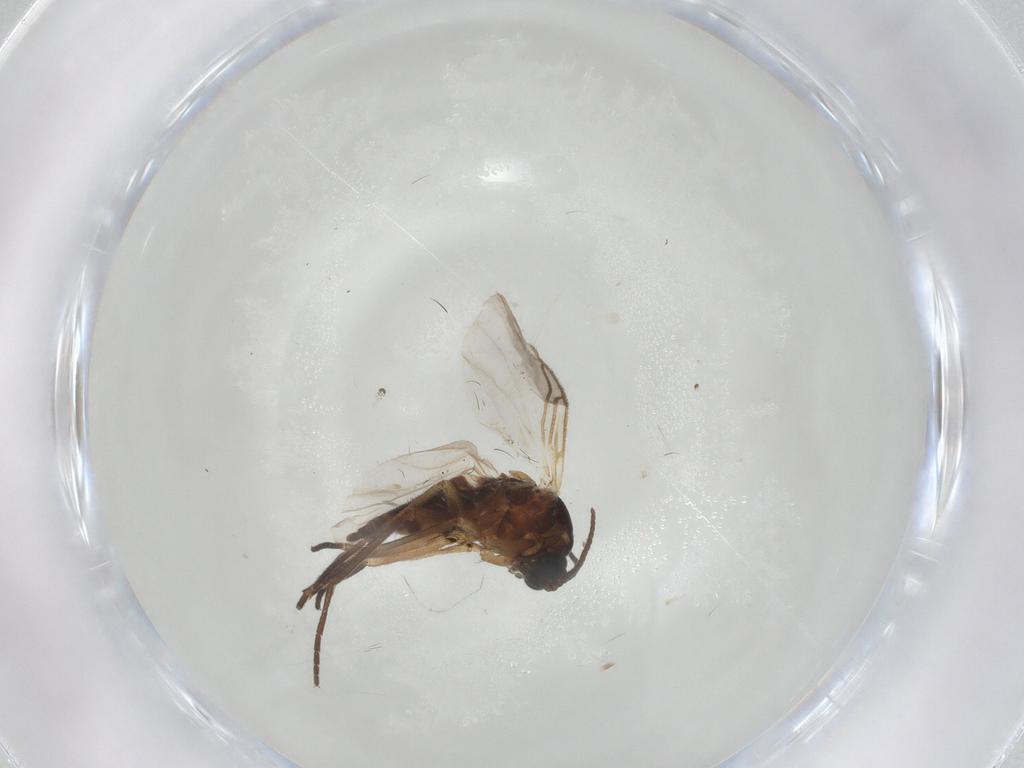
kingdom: Animalia
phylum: Arthropoda
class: Insecta
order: Diptera
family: Sciaridae
